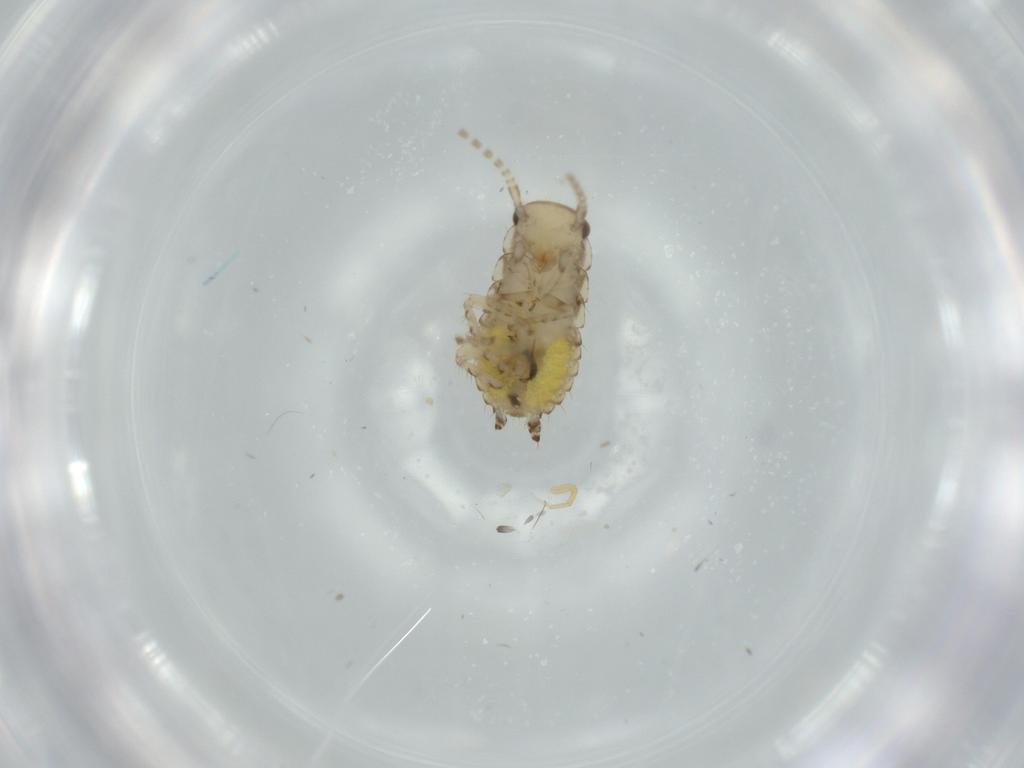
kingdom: Animalia
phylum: Arthropoda
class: Insecta
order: Blattodea
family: Ectobiidae
